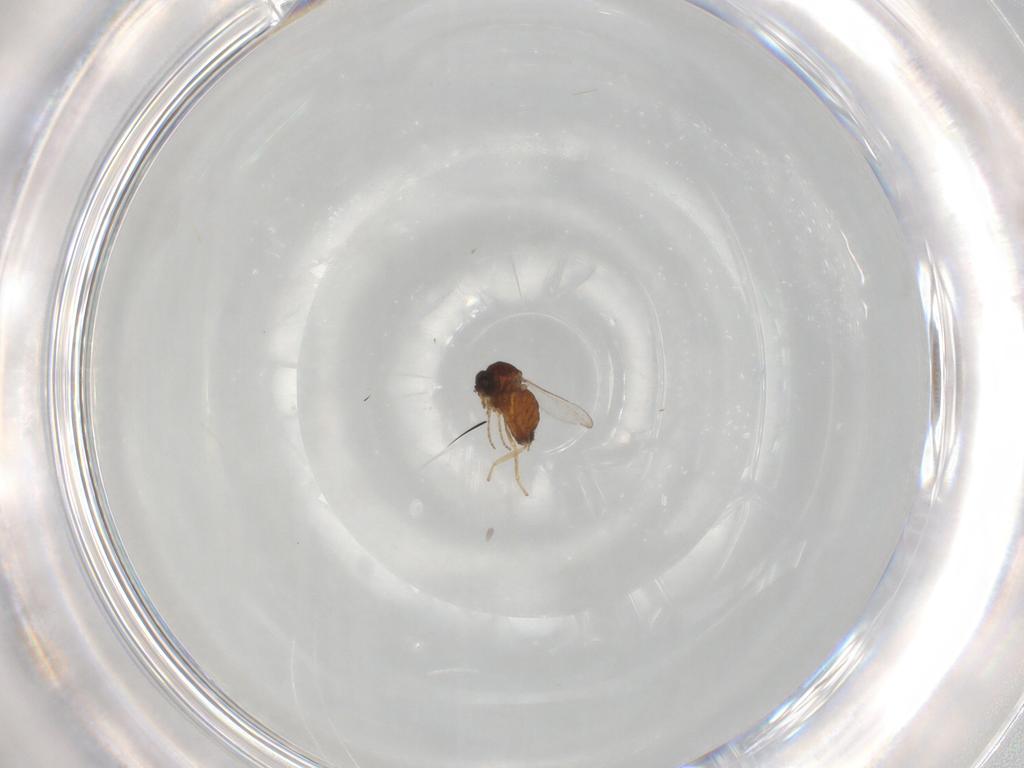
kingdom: Animalia
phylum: Arthropoda
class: Insecta
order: Diptera
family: Ceratopogonidae
